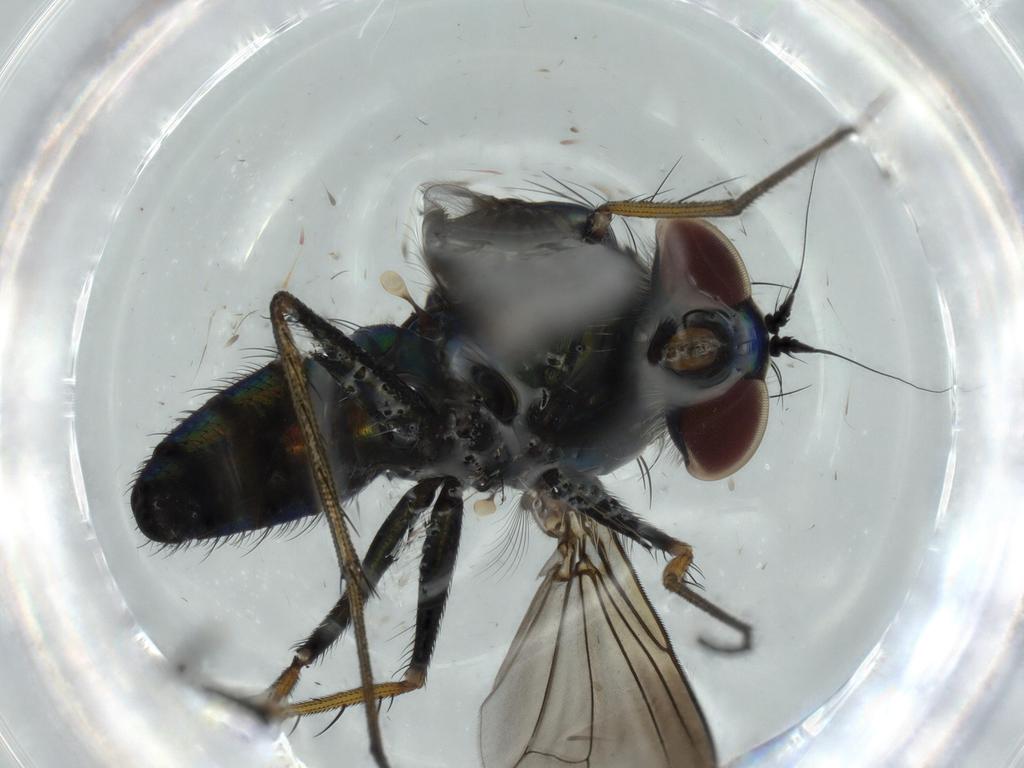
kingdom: Animalia
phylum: Arthropoda
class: Insecta
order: Diptera
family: Dolichopodidae
